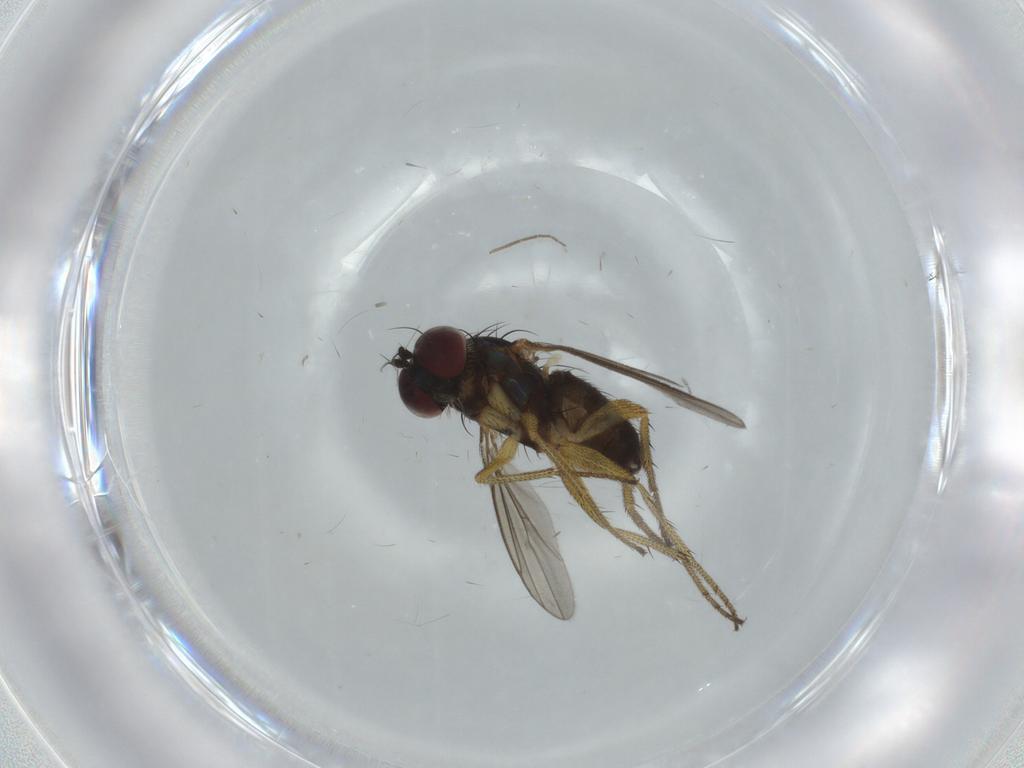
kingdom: Animalia
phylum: Arthropoda
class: Insecta
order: Diptera
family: Dolichopodidae
